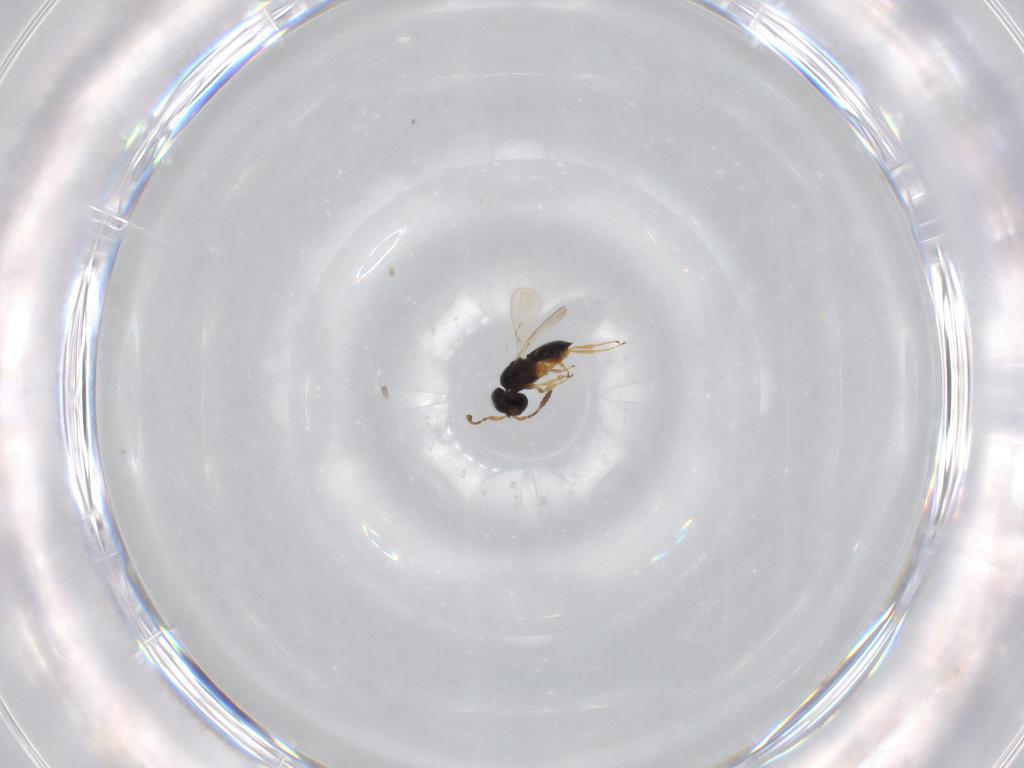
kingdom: Animalia
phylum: Arthropoda
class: Insecta
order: Hymenoptera
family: Scelionidae
